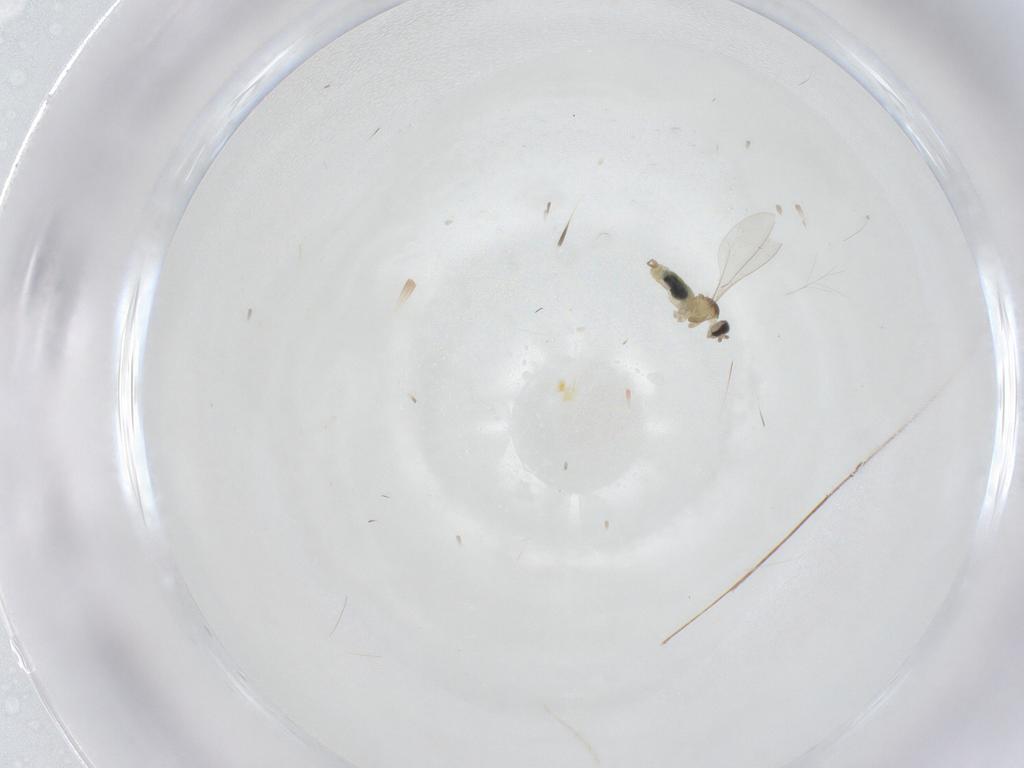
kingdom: Animalia
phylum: Arthropoda
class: Insecta
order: Diptera
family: Cecidomyiidae
